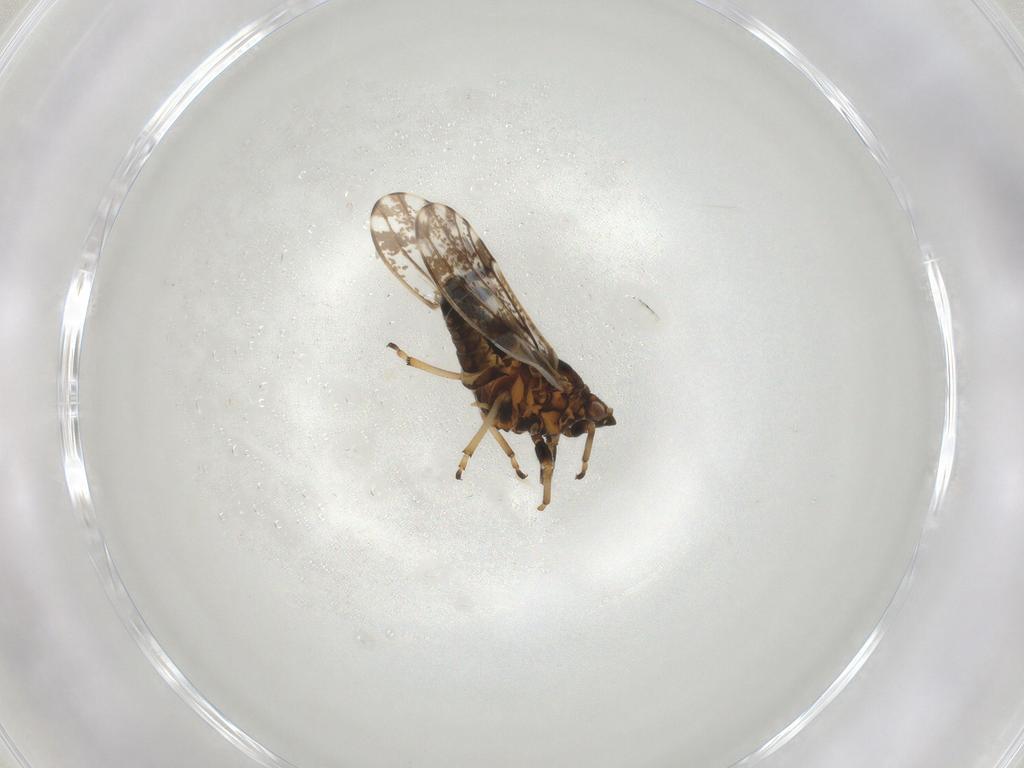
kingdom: Animalia
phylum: Arthropoda
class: Insecta
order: Hemiptera
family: Psylloidea_incertae_sedis
